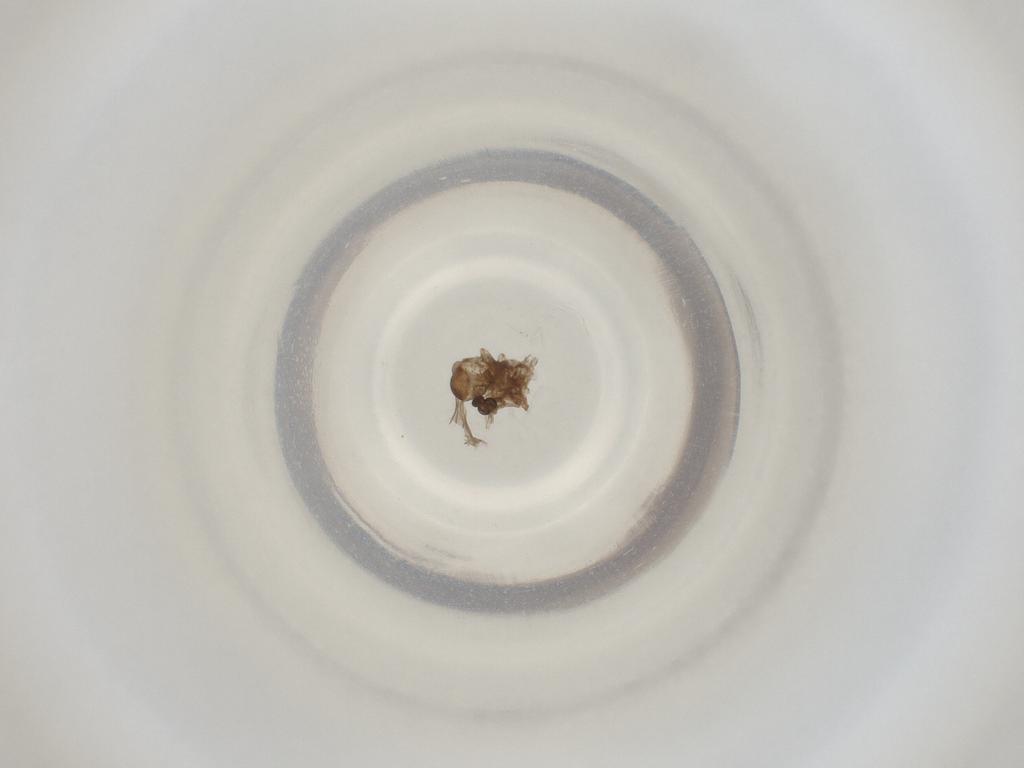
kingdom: Animalia
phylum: Arthropoda
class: Insecta
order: Diptera
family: Cecidomyiidae
